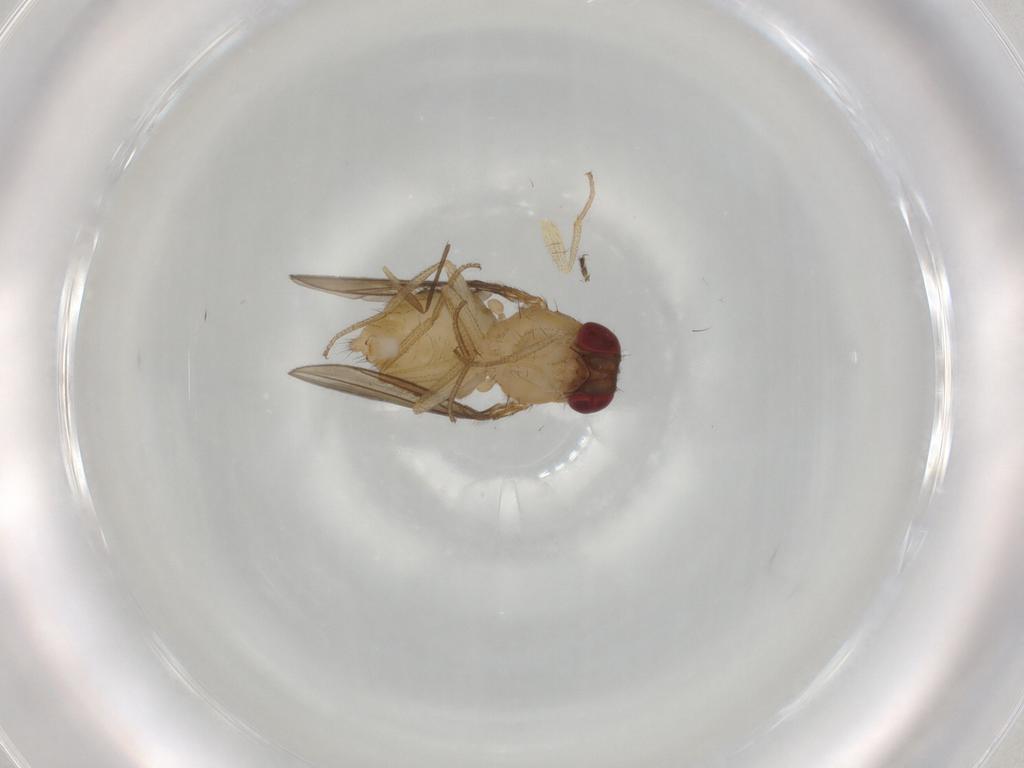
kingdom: Animalia
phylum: Arthropoda
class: Insecta
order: Diptera
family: Drosophilidae
